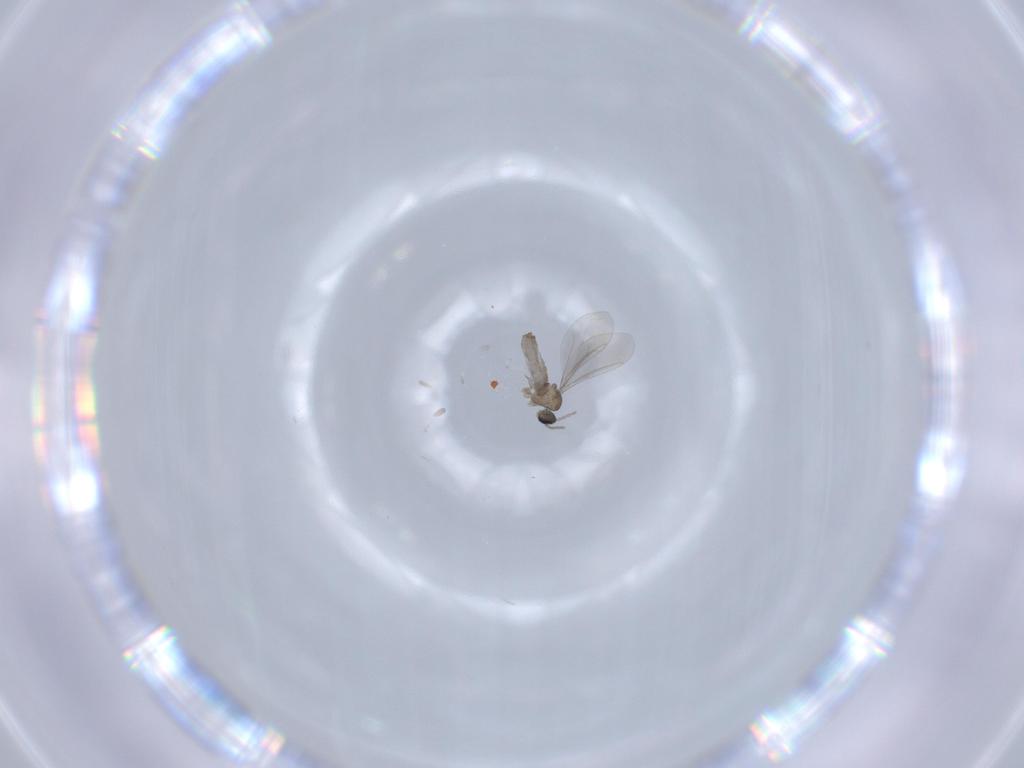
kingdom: Animalia
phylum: Arthropoda
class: Insecta
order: Diptera
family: Cecidomyiidae
